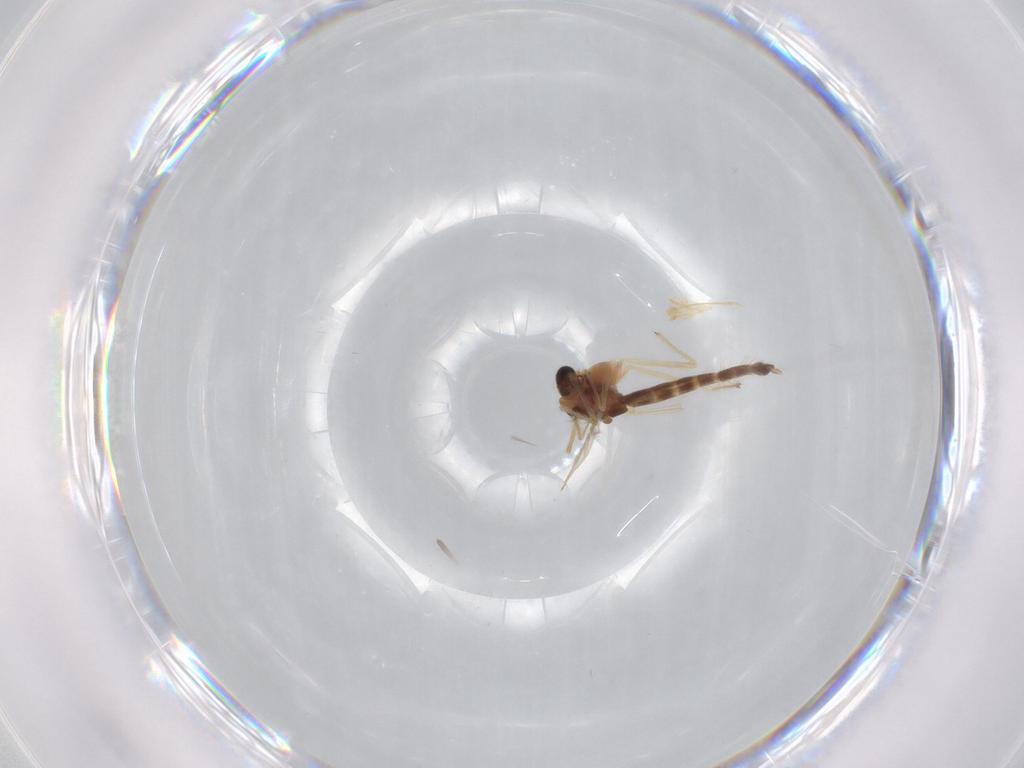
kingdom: Animalia
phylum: Arthropoda
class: Insecta
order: Diptera
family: Chironomidae
